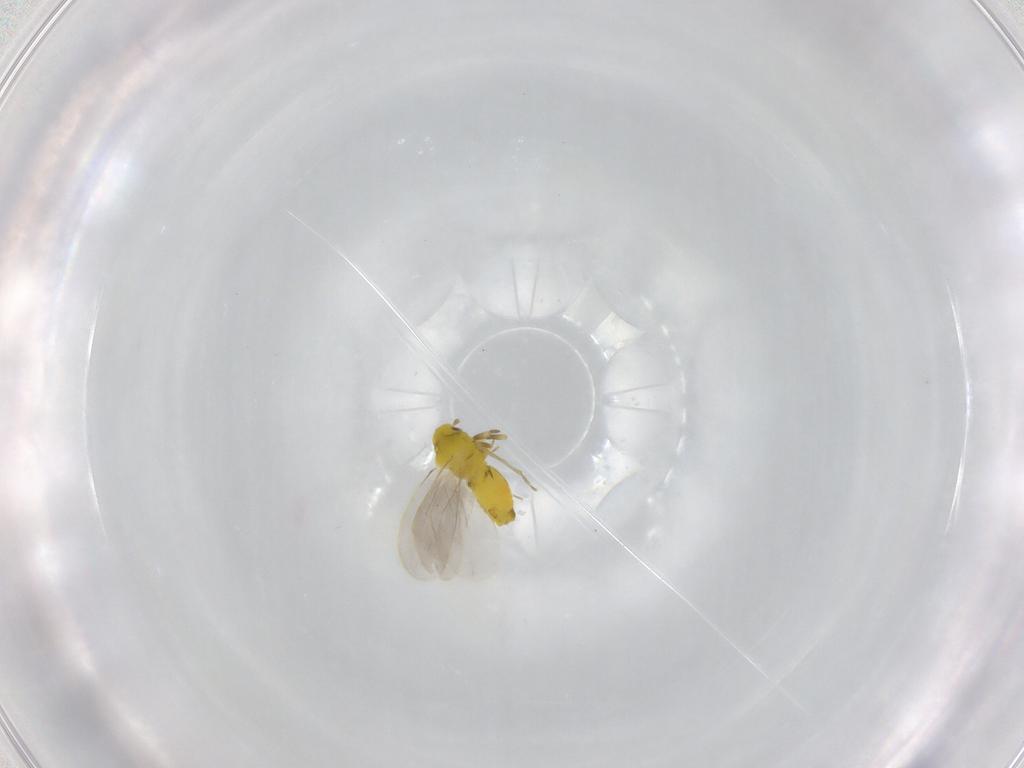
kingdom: Animalia
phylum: Arthropoda
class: Insecta
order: Hemiptera
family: Aleyrodidae
